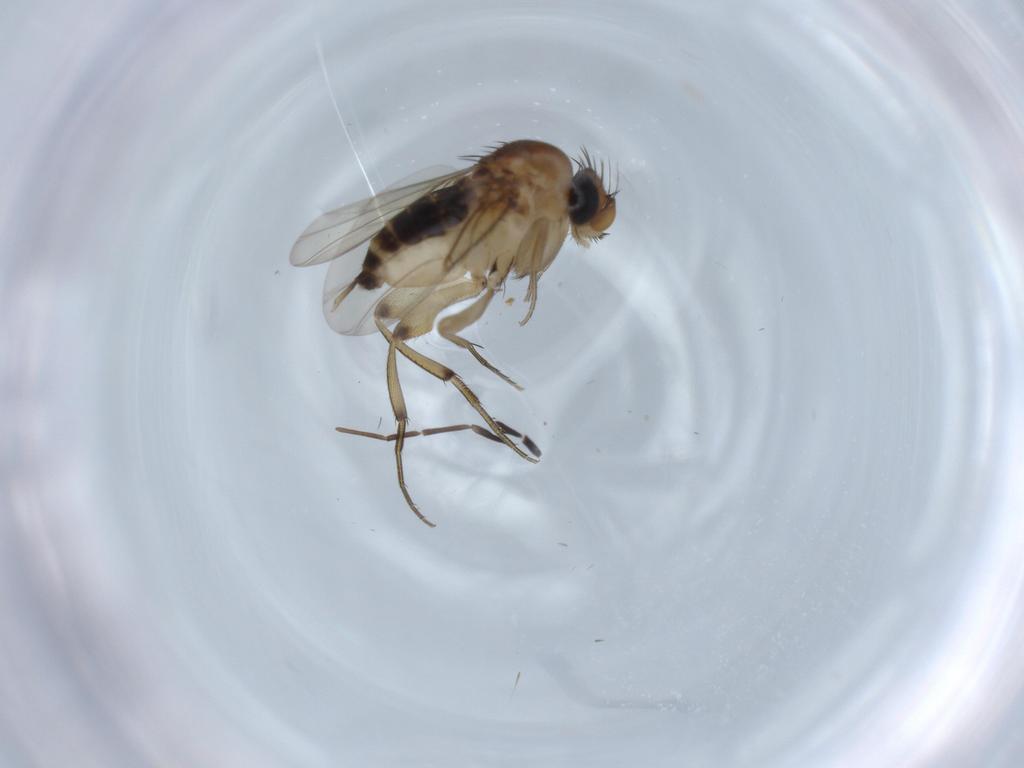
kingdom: Animalia
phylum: Arthropoda
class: Insecta
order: Diptera
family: Cecidomyiidae
